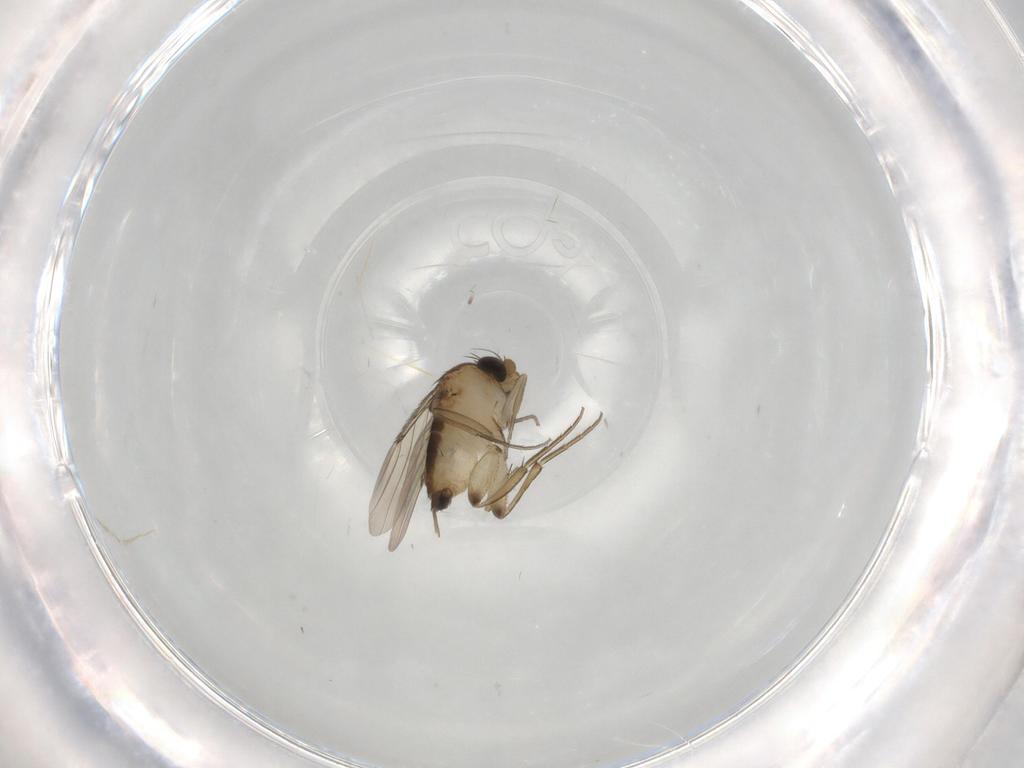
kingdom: Animalia
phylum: Arthropoda
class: Insecta
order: Diptera
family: Phoridae
